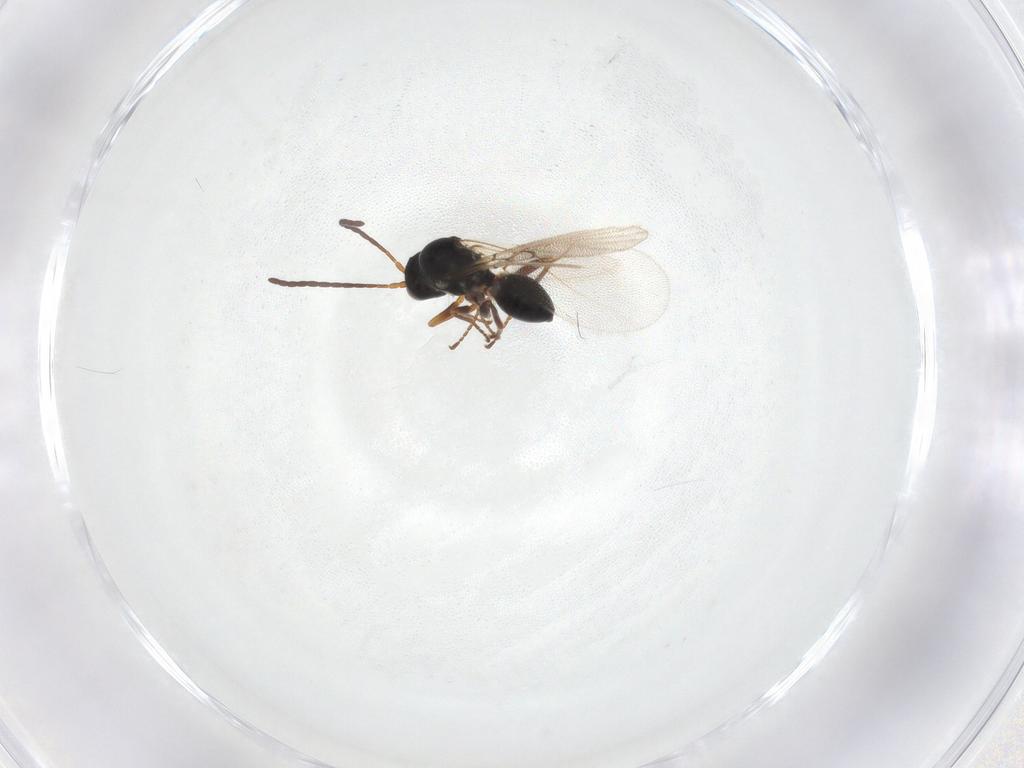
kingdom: Animalia
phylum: Arthropoda
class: Insecta
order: Hymenoptera
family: Figitidae
